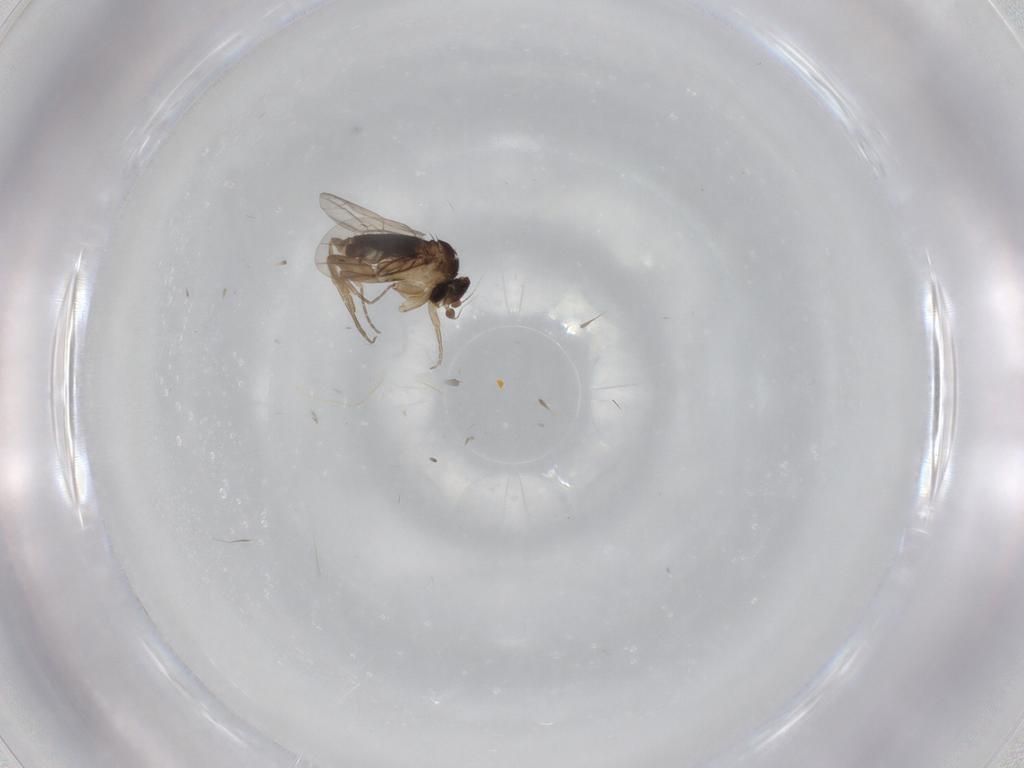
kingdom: Animalia
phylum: Arthropoda
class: Insecta
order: Diptera
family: Phoridae
